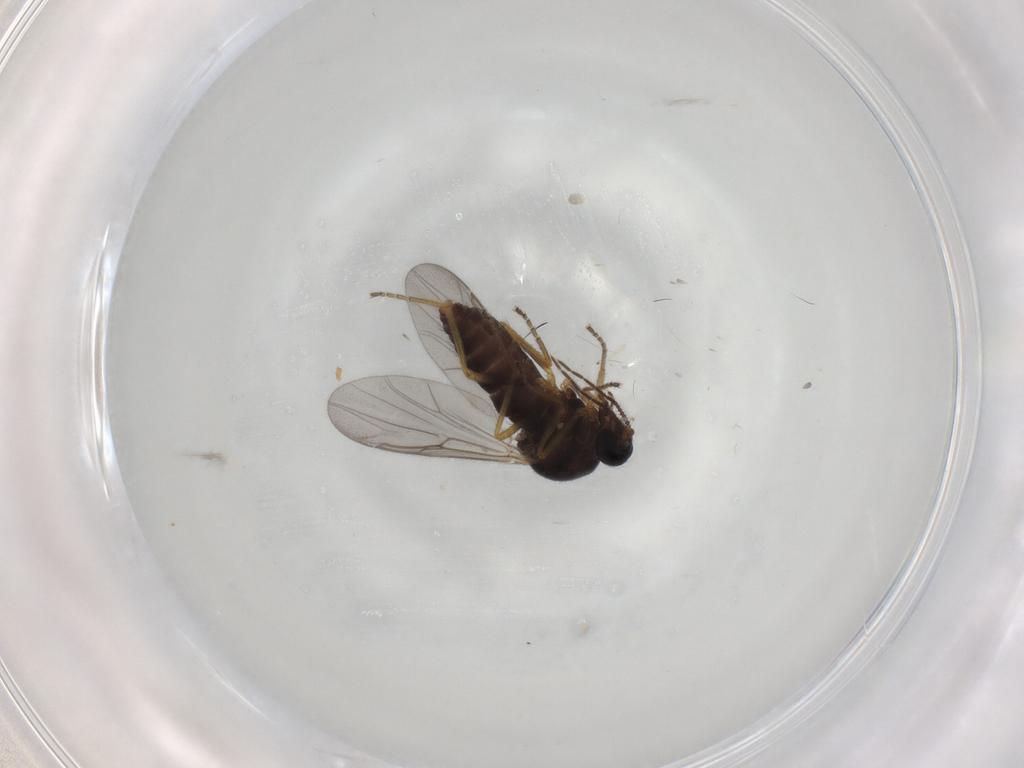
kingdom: Animalia
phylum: Arthropoda
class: Insecta
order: Diptera
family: Ceratopogonidae
